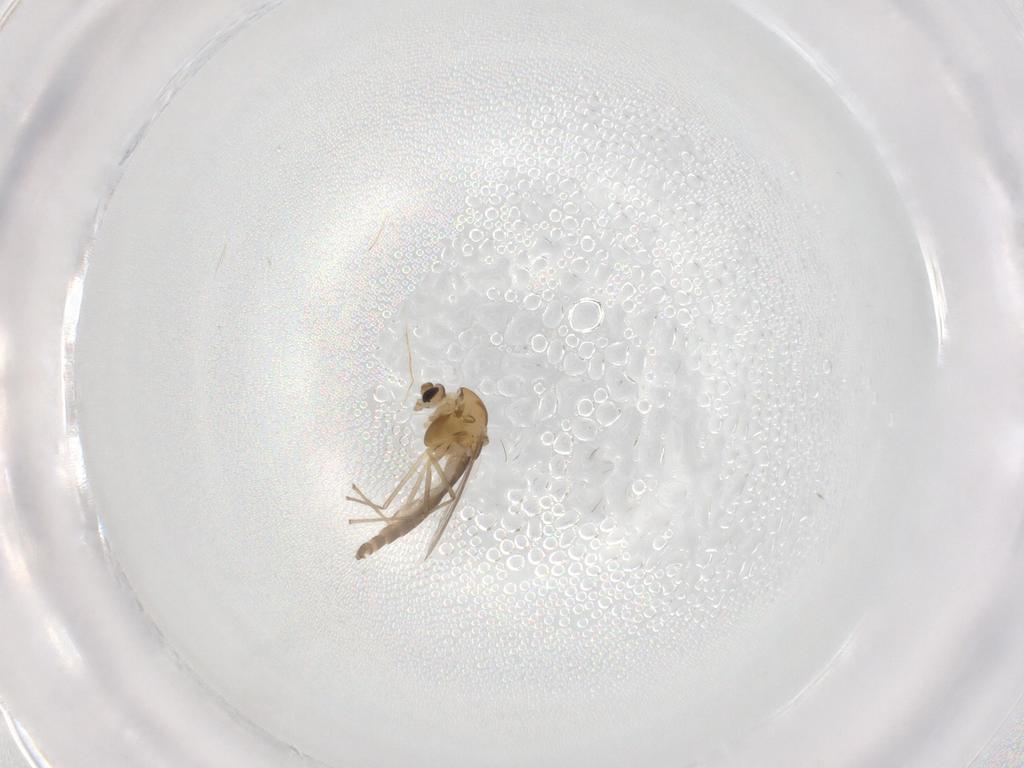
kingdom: Animalia
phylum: Arthropoda
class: Insecta
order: Diptera
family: Chironomidae
